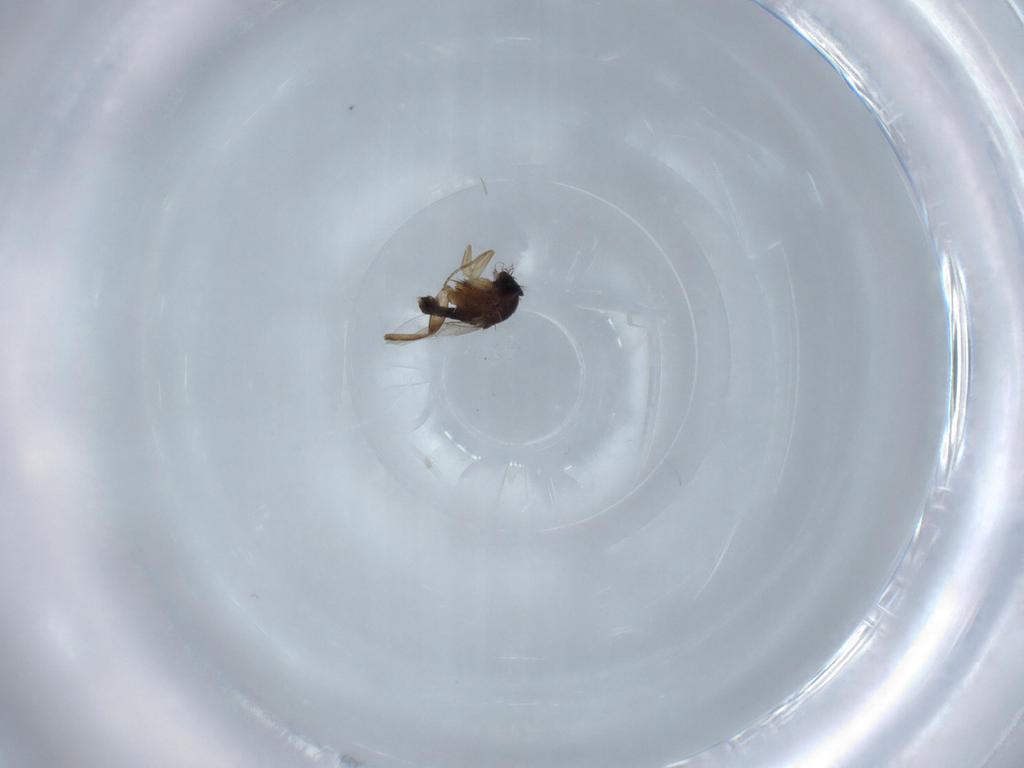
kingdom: Animalia
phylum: Arthropoda
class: Insecta
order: Diptera
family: Phoridae
